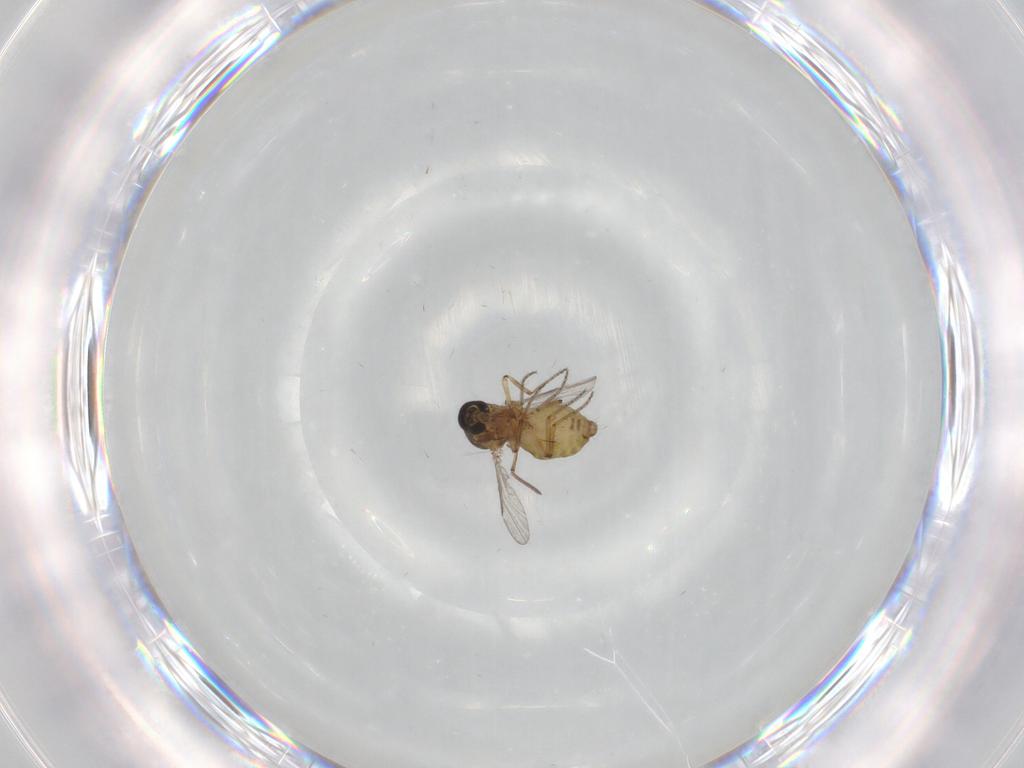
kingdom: Animalia
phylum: Arthropoda
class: Insecta
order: Diptera
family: Ceratopogonidae
